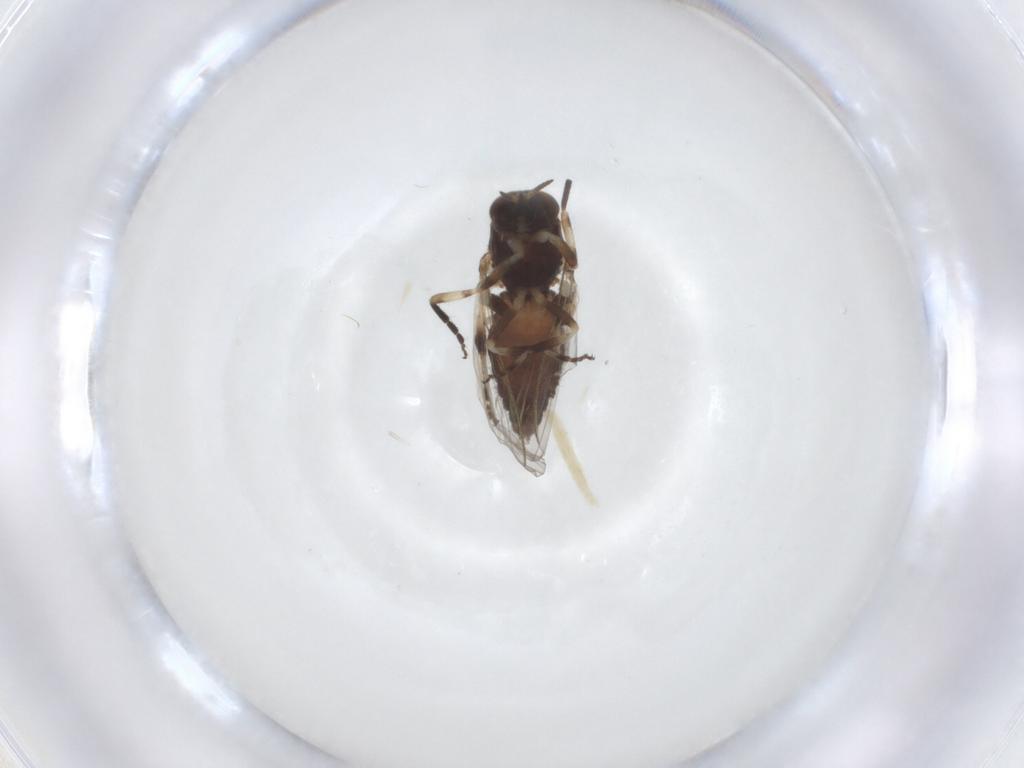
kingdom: Animalia
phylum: Arthropoda
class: Insecta
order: Diptera
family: Simuliidae
